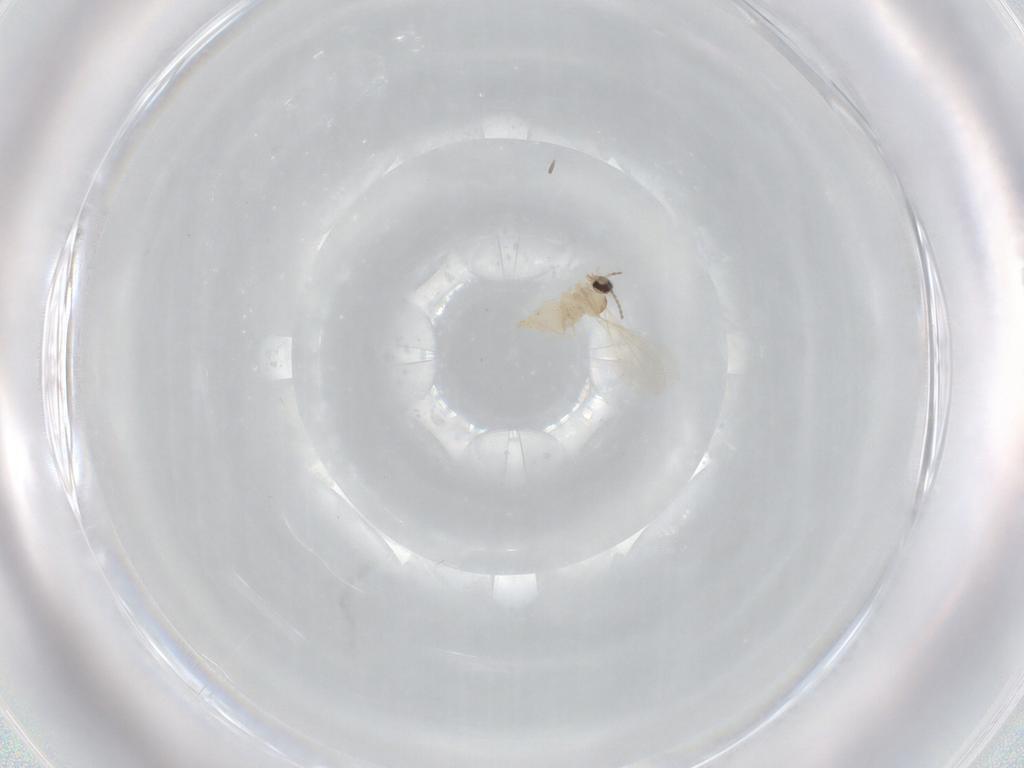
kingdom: Animalia
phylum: Arthropoda
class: Insecta
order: Diptera
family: Cecidomyiidae
